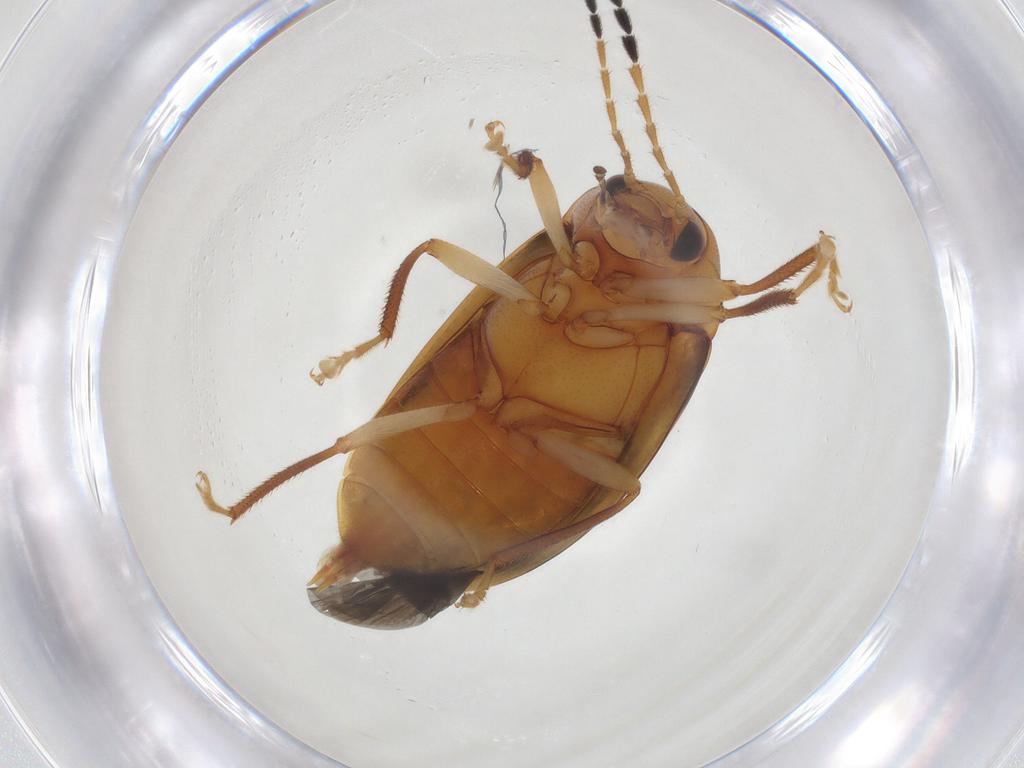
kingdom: Animalia
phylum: Arthropoda
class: Insecta
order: Coleoptera
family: Ptilodactylidae
